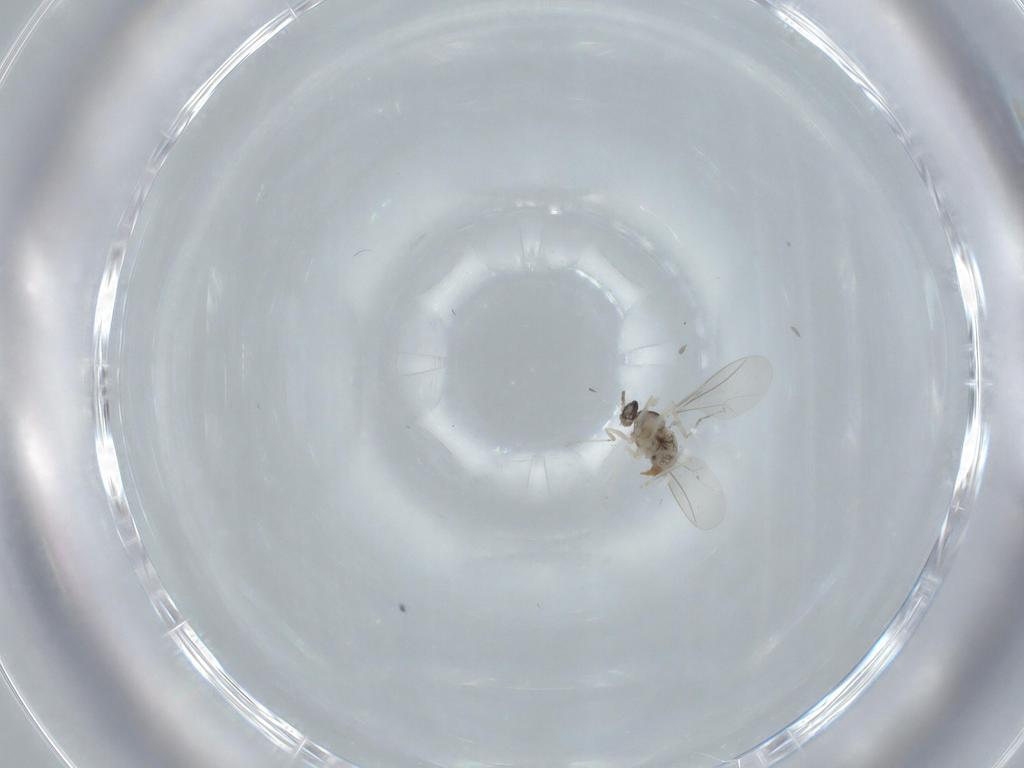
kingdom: Animalia
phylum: Arthropoda
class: Insecta
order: Diptera
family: Cecidomyiidae
